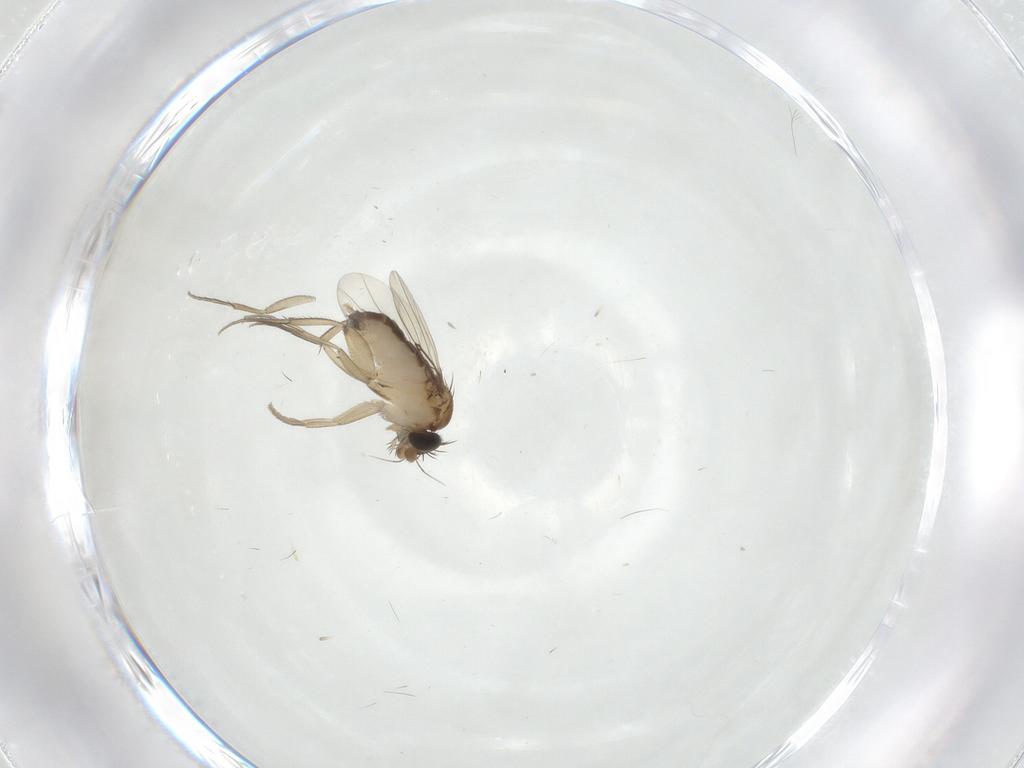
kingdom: Animalia
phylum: Arthropoda
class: Insecta
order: Diptera
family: Phoridae
